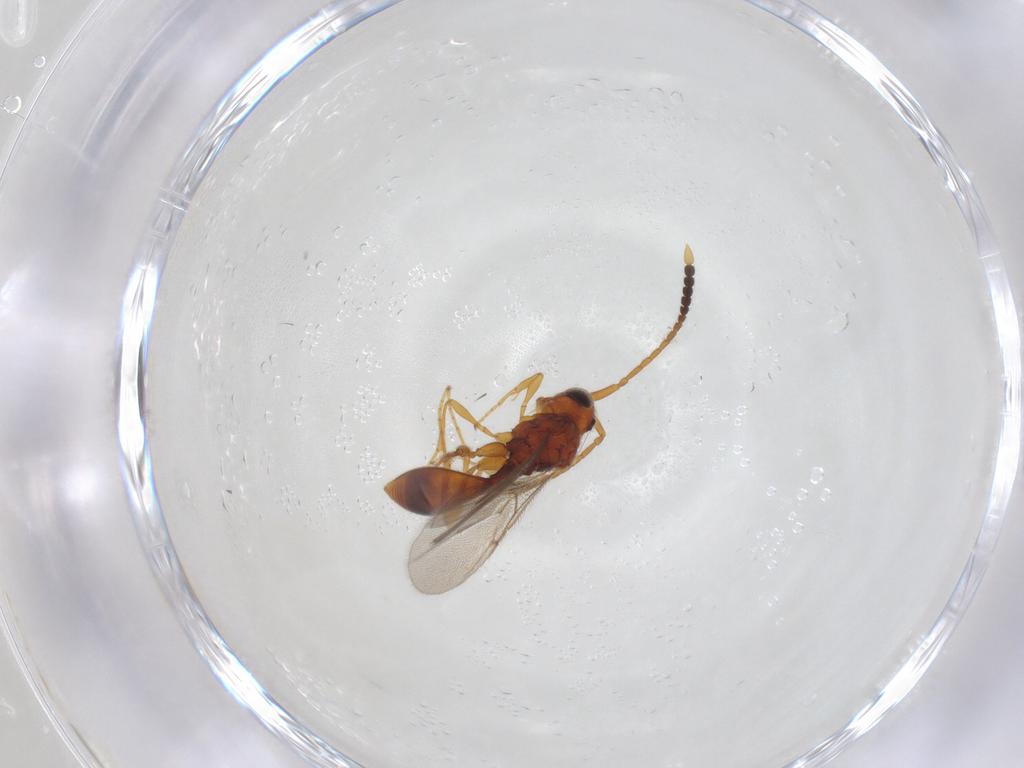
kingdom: Animalia
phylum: Arthropoda
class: Insecta
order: Hymenoptera
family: Diapriidae
